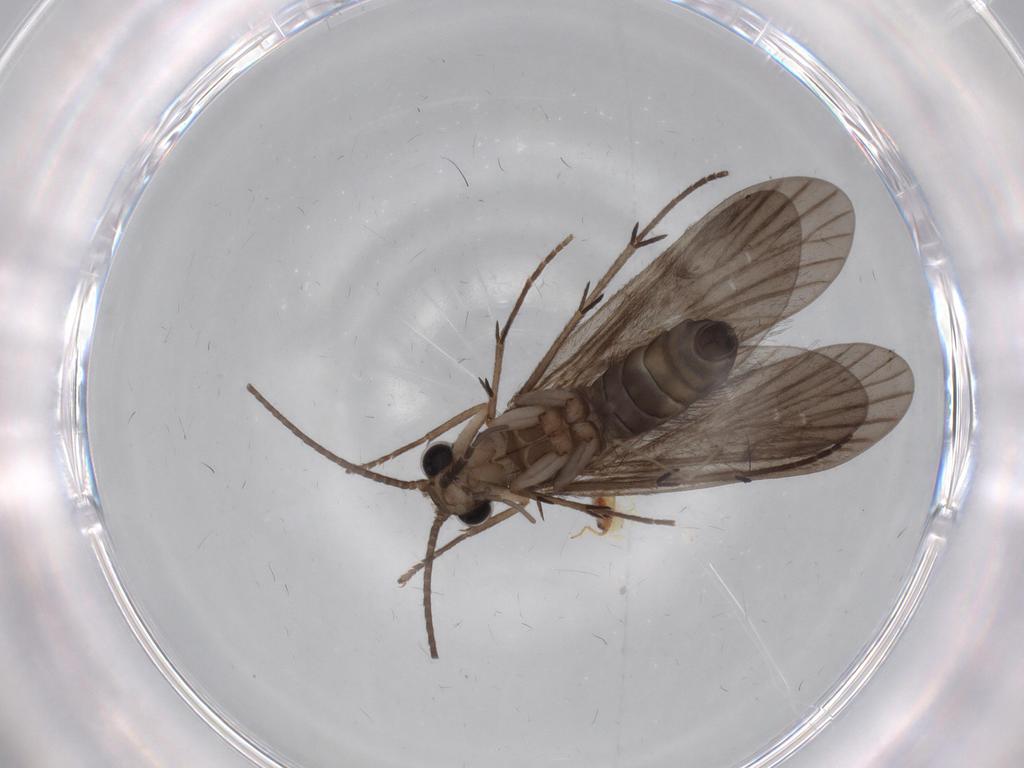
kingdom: Animalia
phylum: Arthropoda
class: Insecta
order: Trichoptera
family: Philopotamidae
